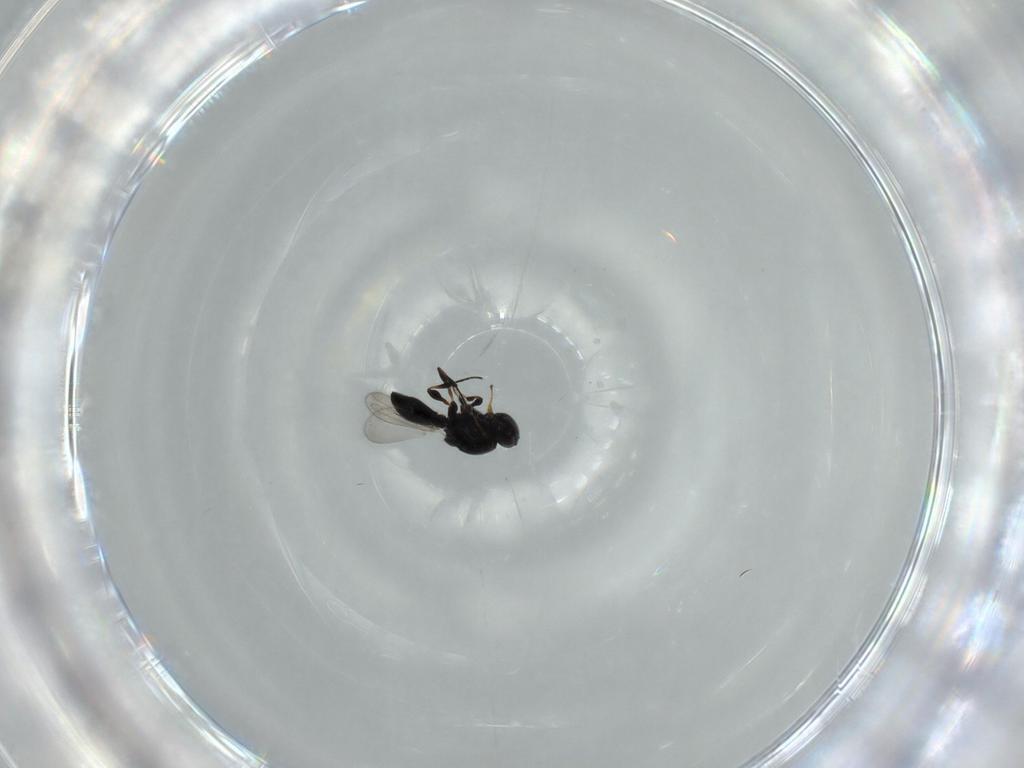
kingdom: Animalia
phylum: Arthropoda
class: Insecta
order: Hymenoptera
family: Platygastridae
